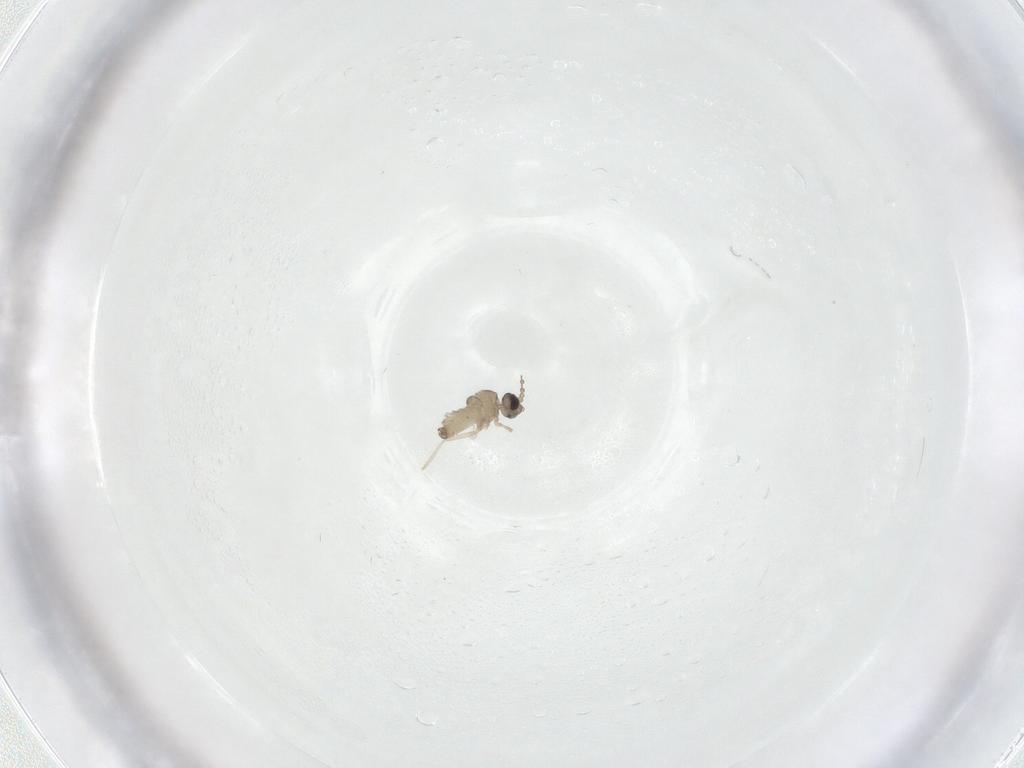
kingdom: Animalia
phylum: Arthropoda
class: Insecta
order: Diptera
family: Cecidomyiidae
